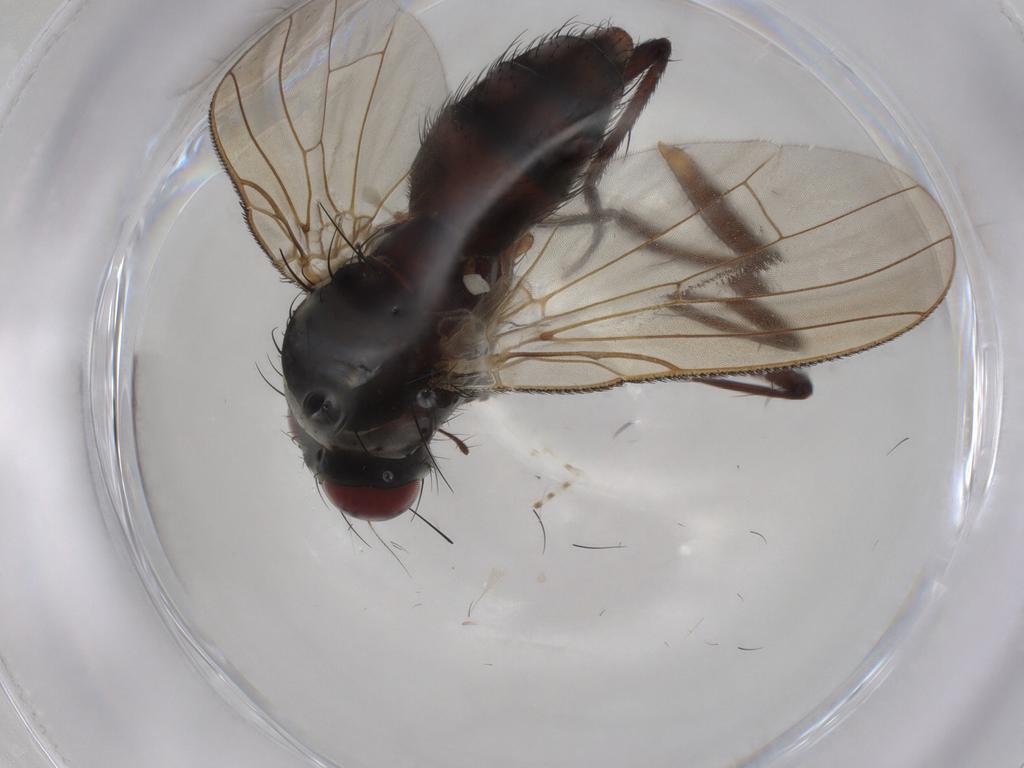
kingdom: Animalia
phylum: Arthropoda
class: Insecta
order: Diptera
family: Anthomyiidae
